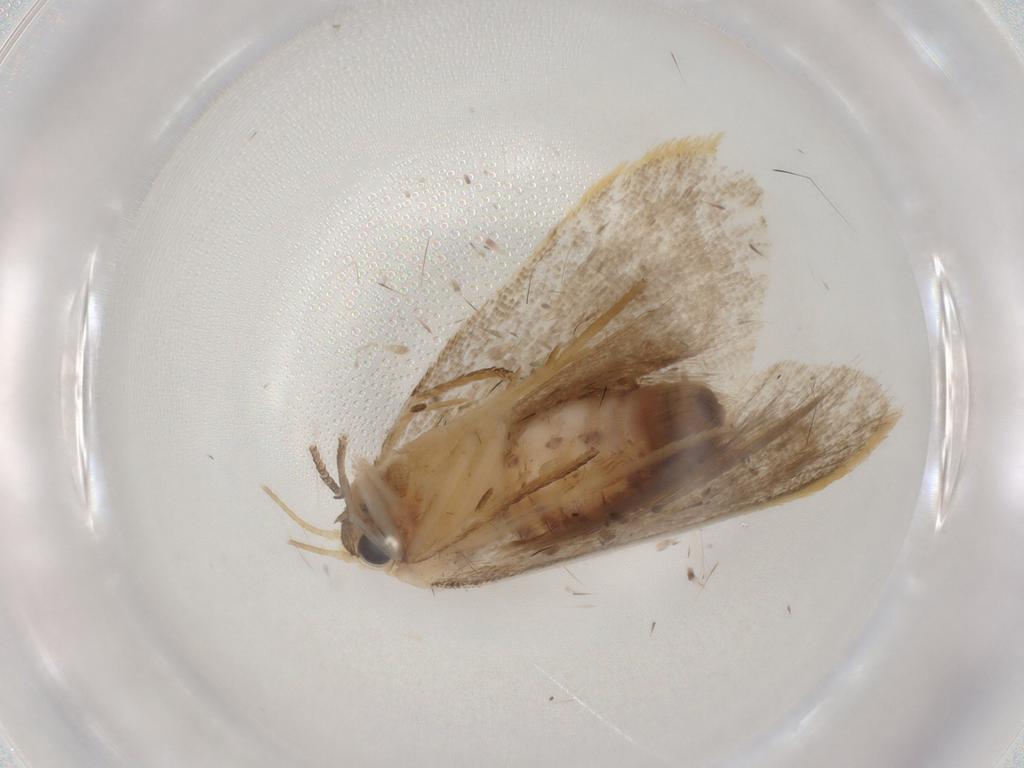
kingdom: Animalia
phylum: Arthropoda
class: Insecta
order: Lepidoptera
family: Erebidae
